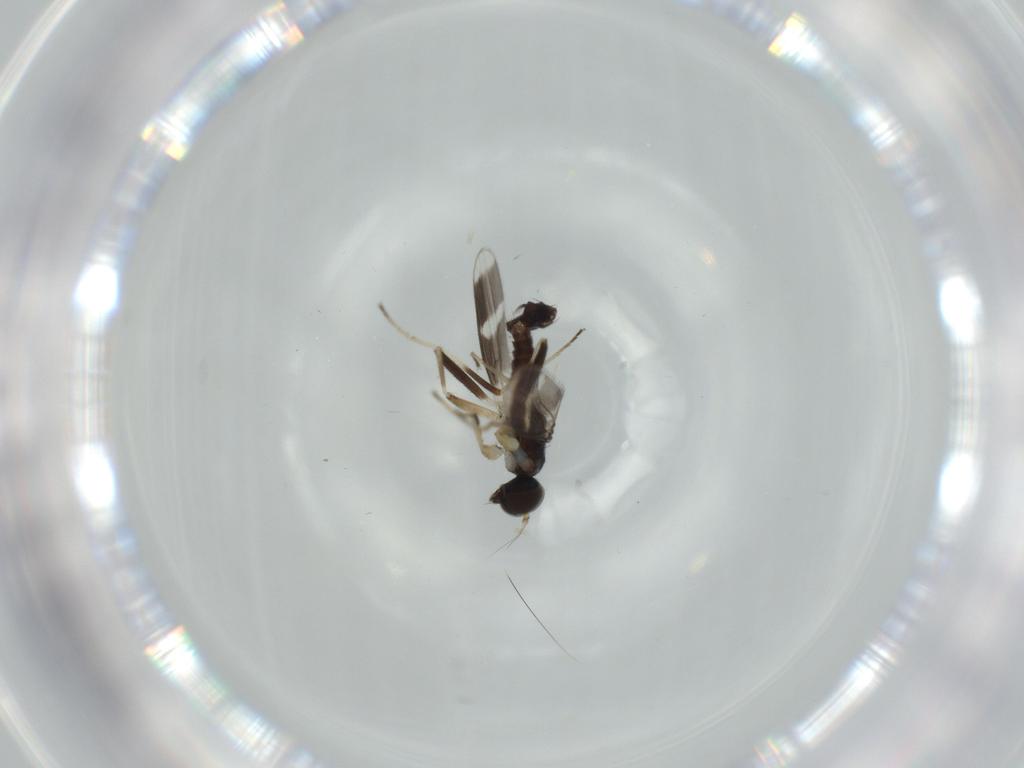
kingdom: Animalia
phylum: Arthropoda
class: Insecta
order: Diptera
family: Hybotidae
